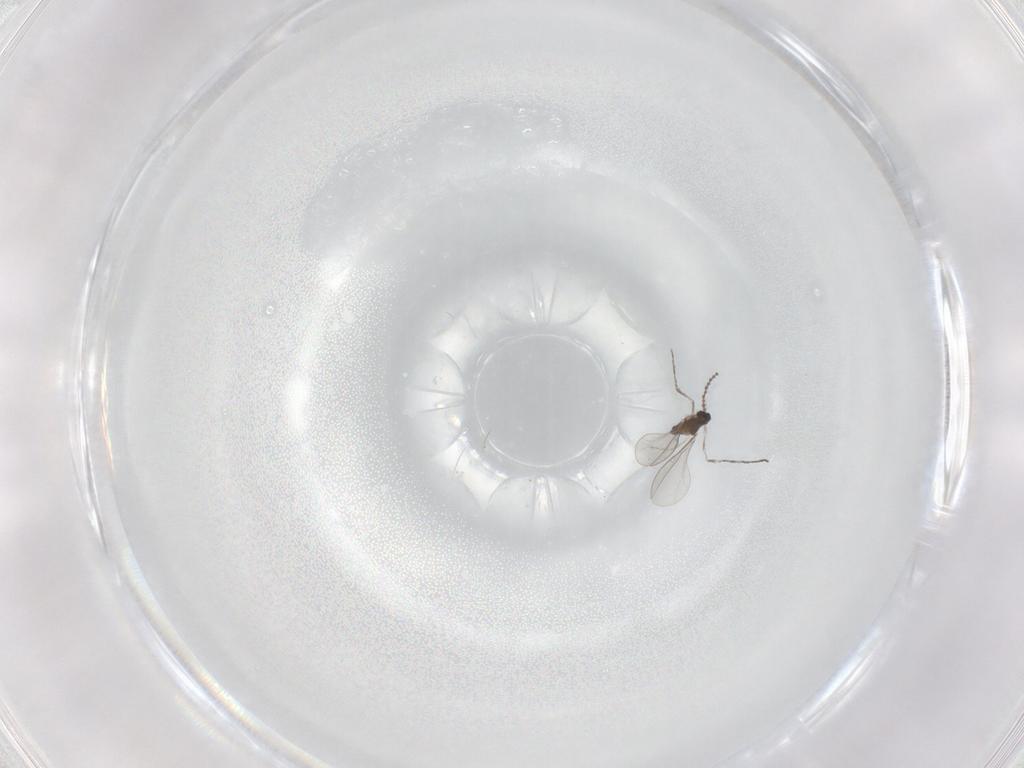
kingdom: Animalia
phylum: Arthropoda
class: Insecta
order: Diptera
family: Cecidomyiidae
